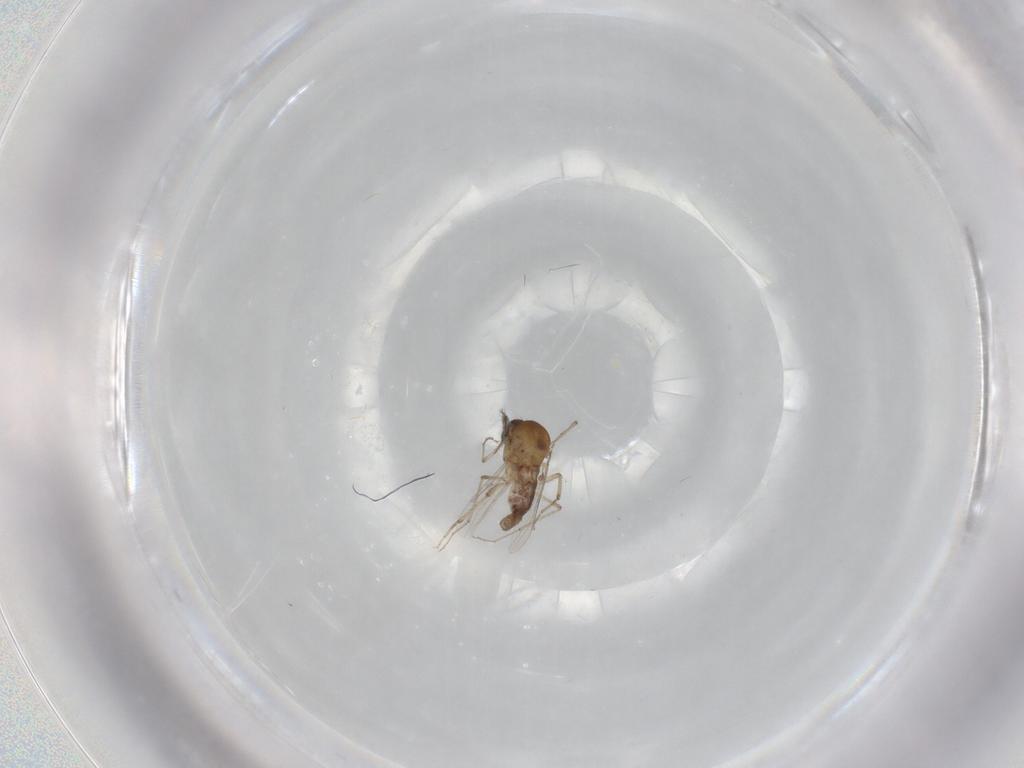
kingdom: Animalia
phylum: Arthropoda
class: Insecta
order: Diptera
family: Ceratopogonidae
